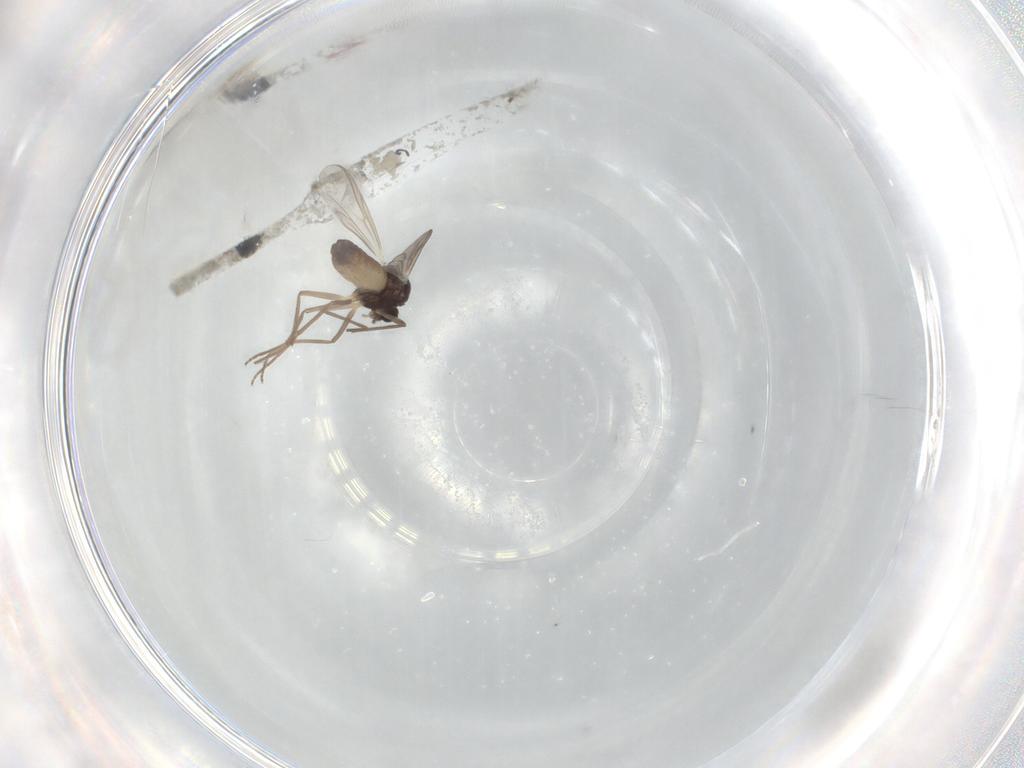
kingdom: Animalia
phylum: Arthropoda
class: Insecta
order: Diptera
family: Chironomidae
